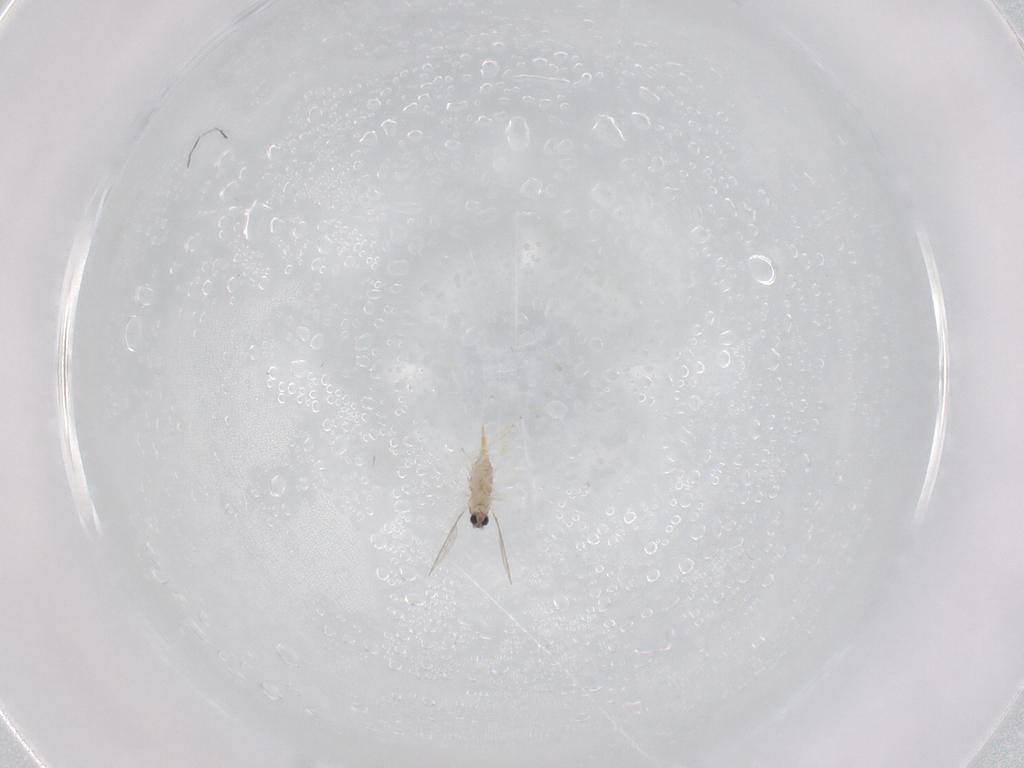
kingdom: Animalia
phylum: Arthropoda
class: Insecta
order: Diptera
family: Cecidomyiidae
